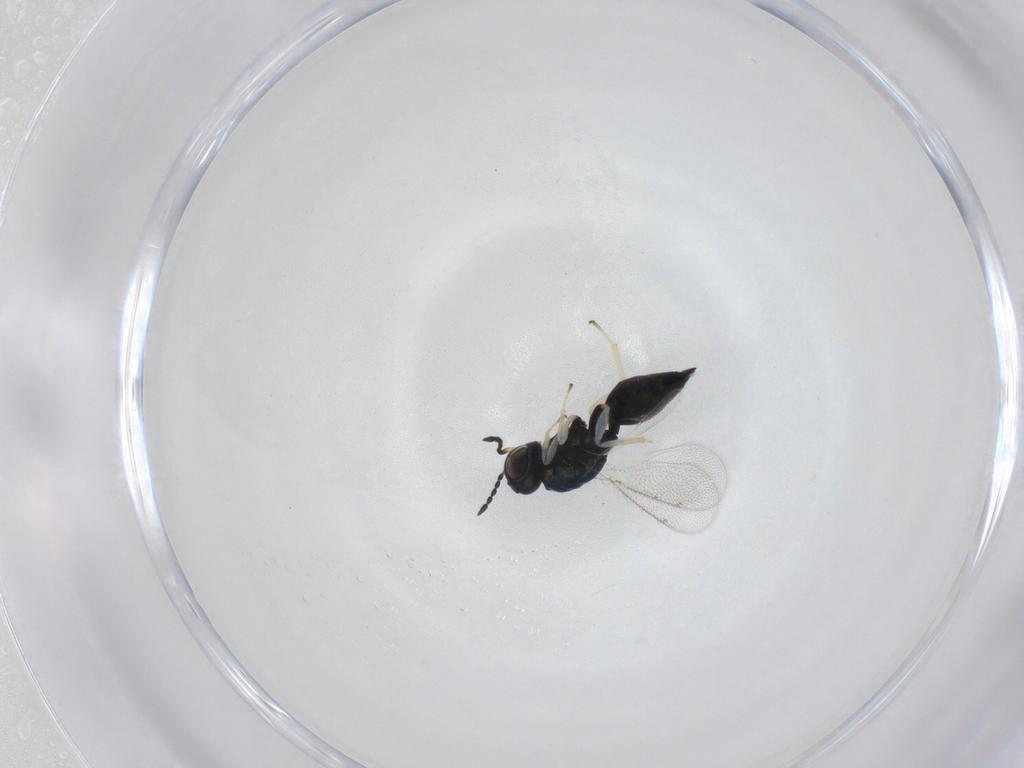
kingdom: Animalia
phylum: Arthropoda
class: Insecta
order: Hymenoptera
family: Eulophidae
